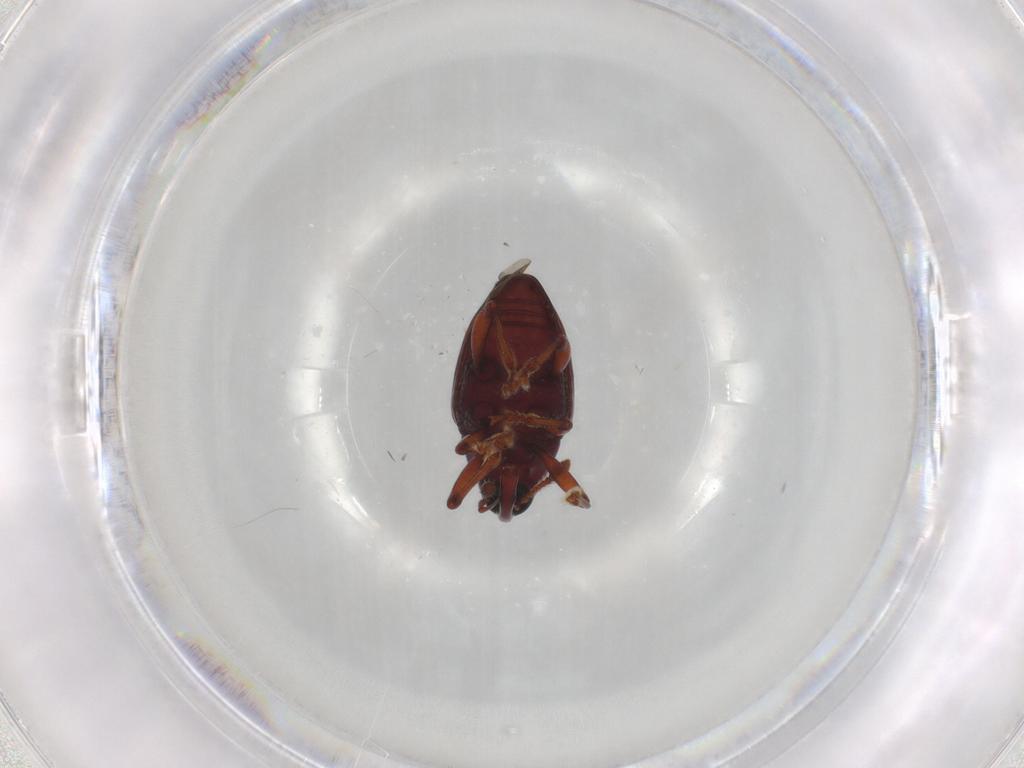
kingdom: Animalia
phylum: Arthropoda
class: Insecta
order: Coleoptera
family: Curculionidae
